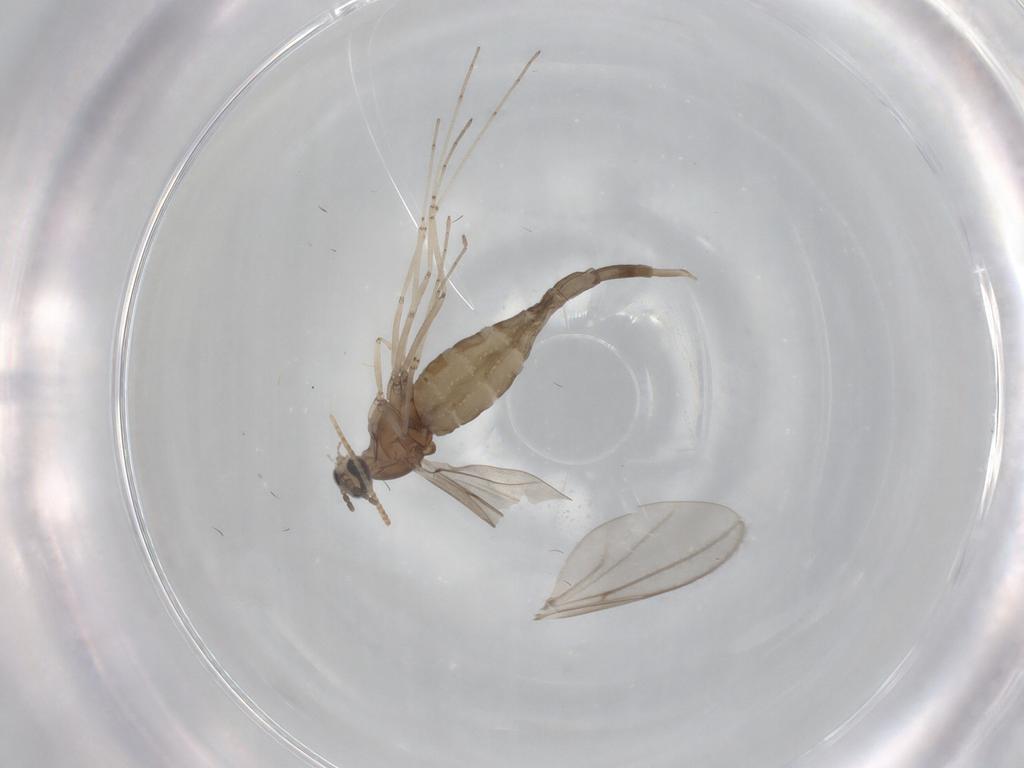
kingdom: Animalia
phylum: Arthropoda
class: Insecta
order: Diptera
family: Cecidomyiidae
